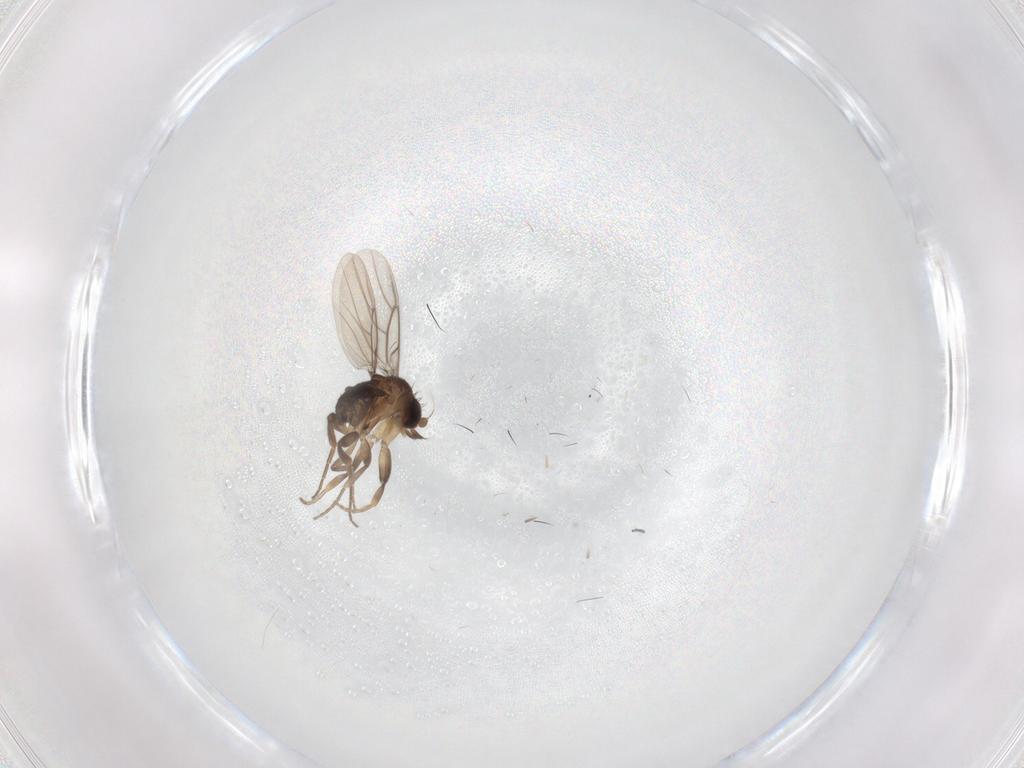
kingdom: Animalia
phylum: Arthropoda
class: Insecta
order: Diptera
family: Phoridae
